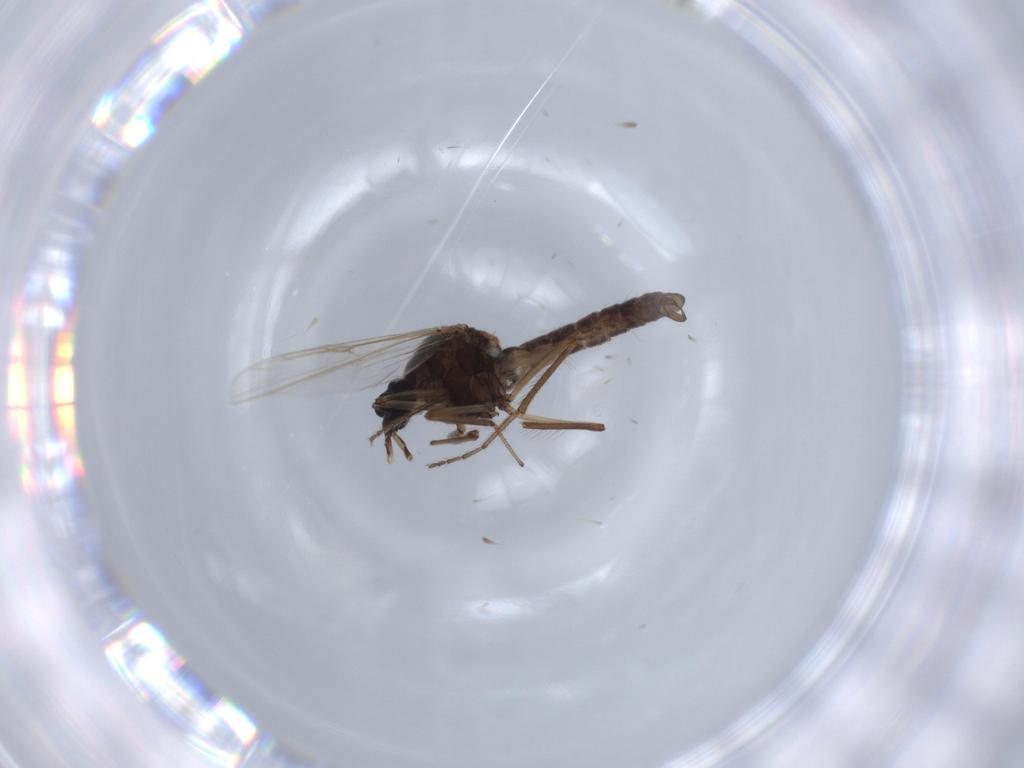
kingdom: Animalia
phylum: Arthropoda
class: Insecta
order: Diptera
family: Ceratopogonidae
